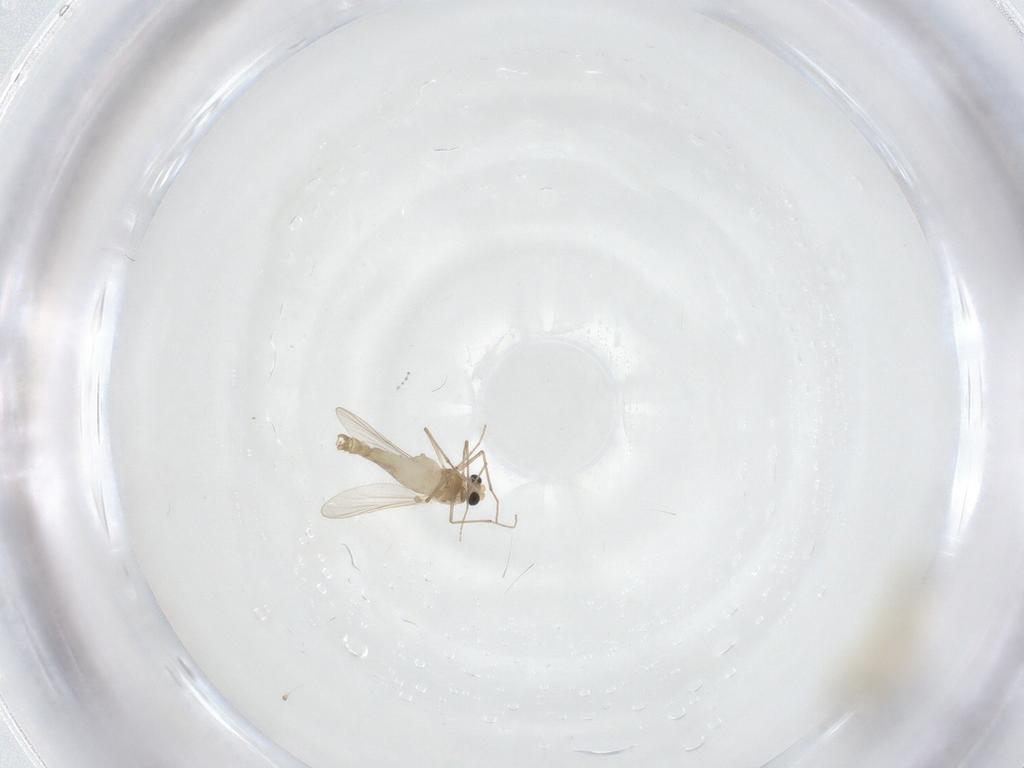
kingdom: Animalia
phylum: Arthropoda
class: Insecta
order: Diptera
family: Chironomidae
